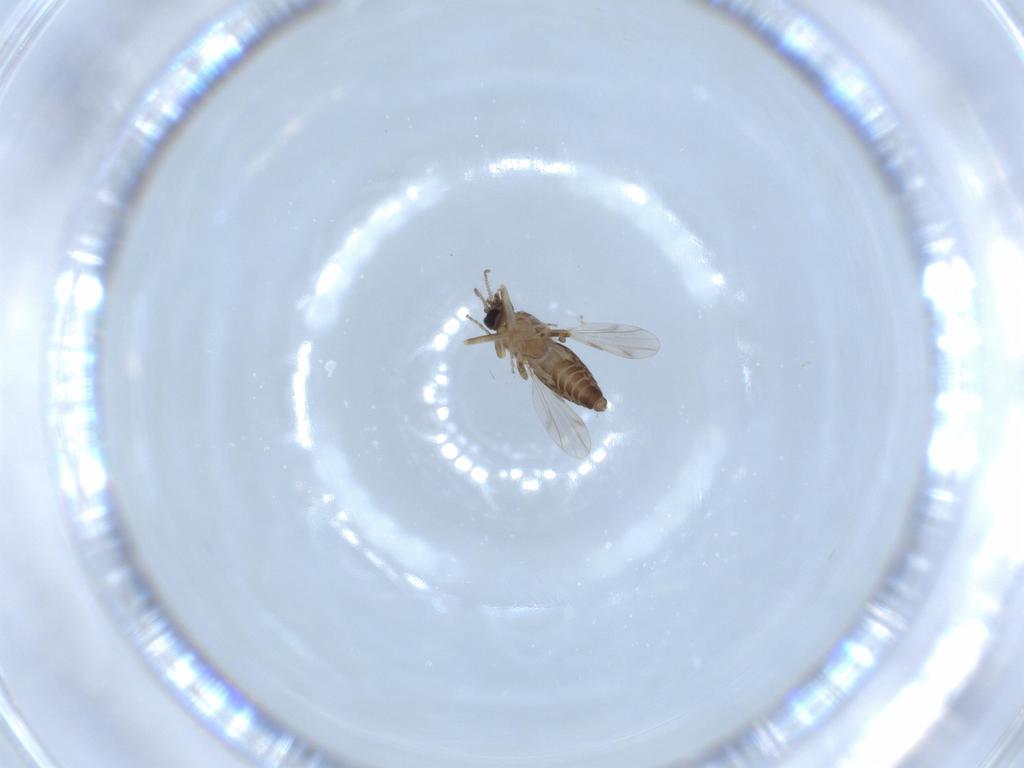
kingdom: Animalia
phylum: Arthropoda
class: Insecta
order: Diptera
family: Ceratopogonidae
